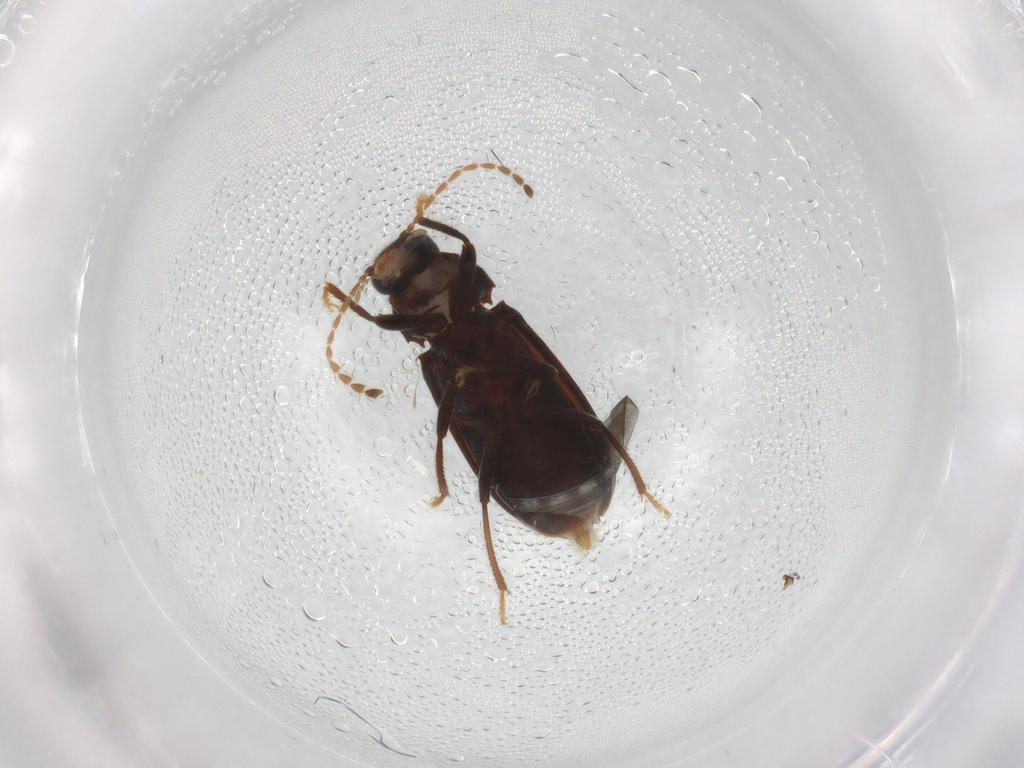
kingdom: Animalia
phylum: Arthropoda
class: Insecta
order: Coleoptera
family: Ptilodactylidae
